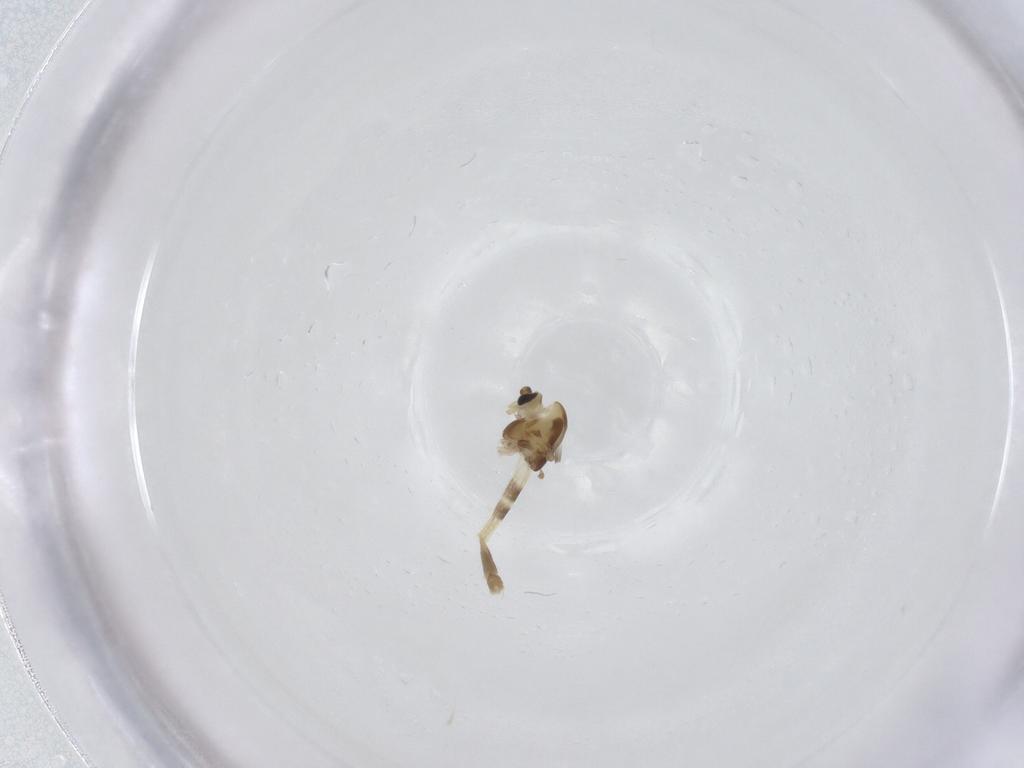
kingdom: Animalia
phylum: Arthropoda
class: Insecta
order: Diptera
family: Chironomidae
